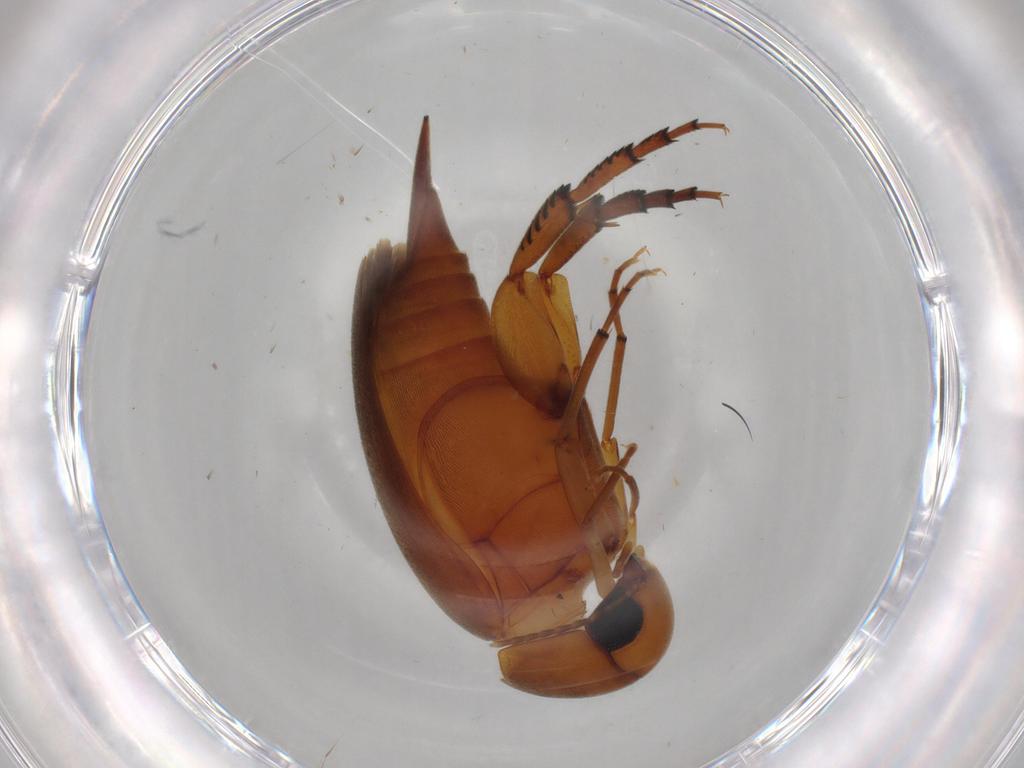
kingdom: Animalia
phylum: Arthropoda
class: Insecta
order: Coleoptera
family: Mordellidae
